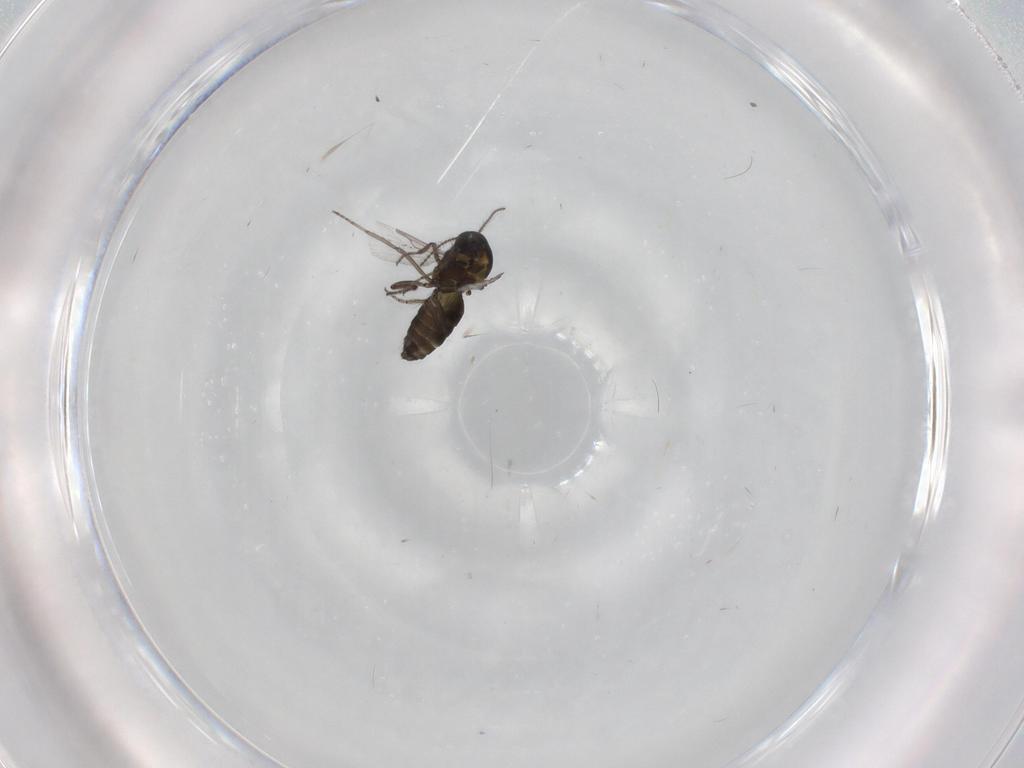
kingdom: Animalia
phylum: Arthropoda
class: Insecta
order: Diptera
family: Ceratopogonidae
